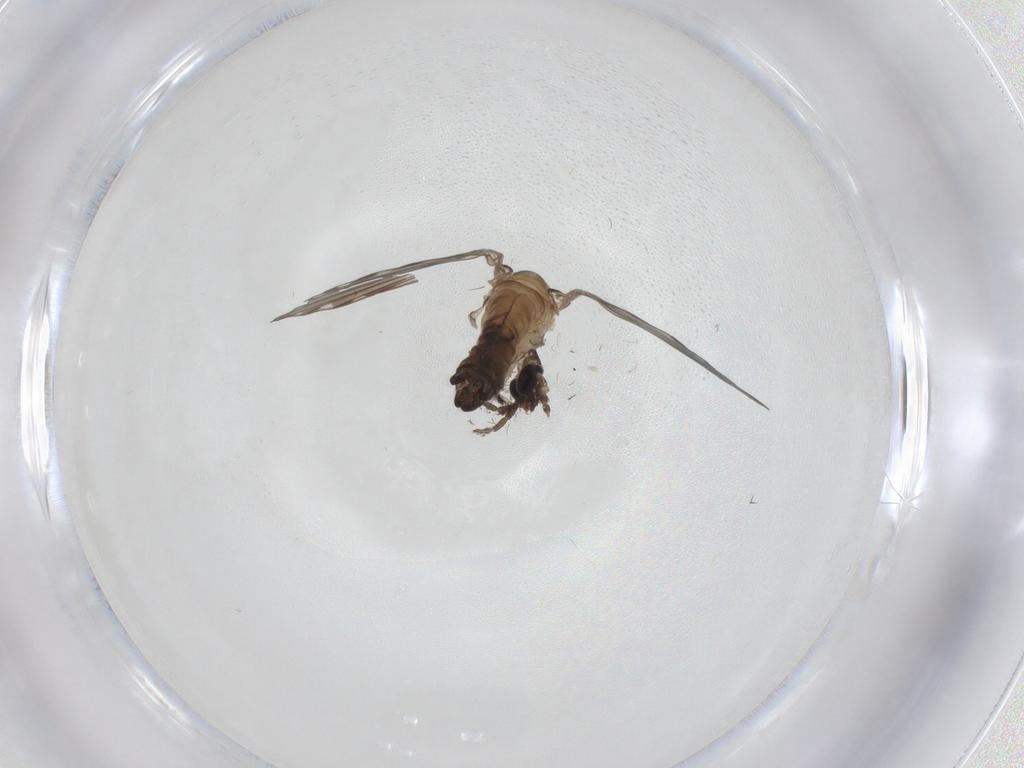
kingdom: Animalia
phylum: Arthropoda
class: Insecta
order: Diptera
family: Psychodidae
